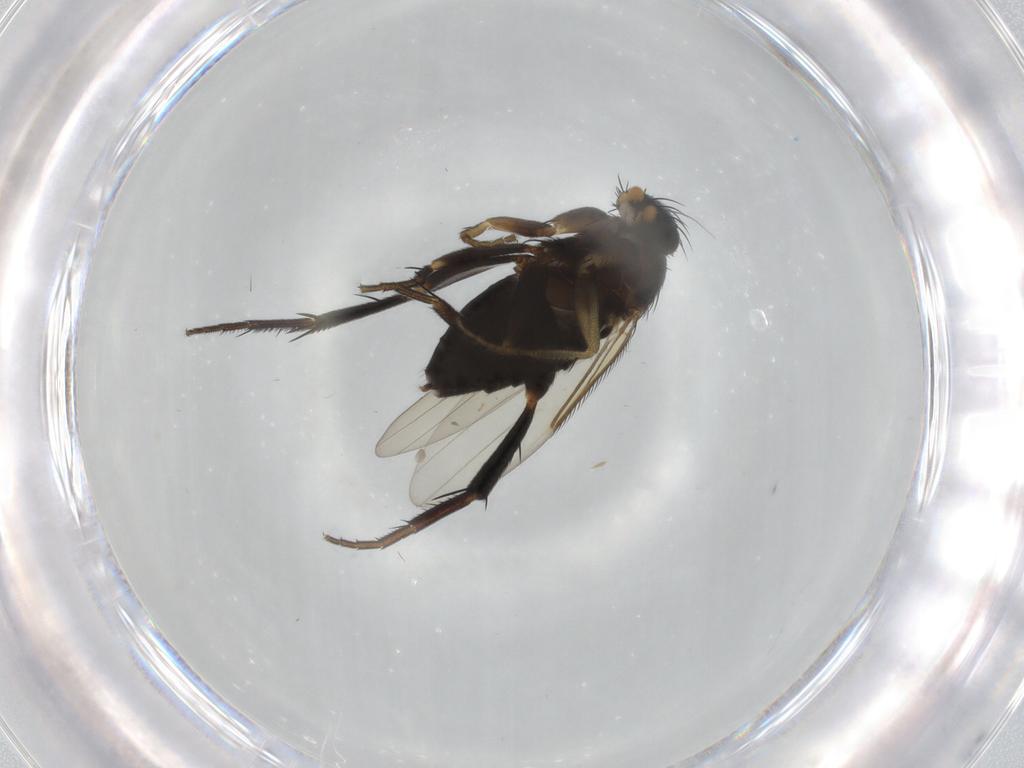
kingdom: Animalia
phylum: Arthropoda
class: Insecta
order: Diptera
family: Phoridae
